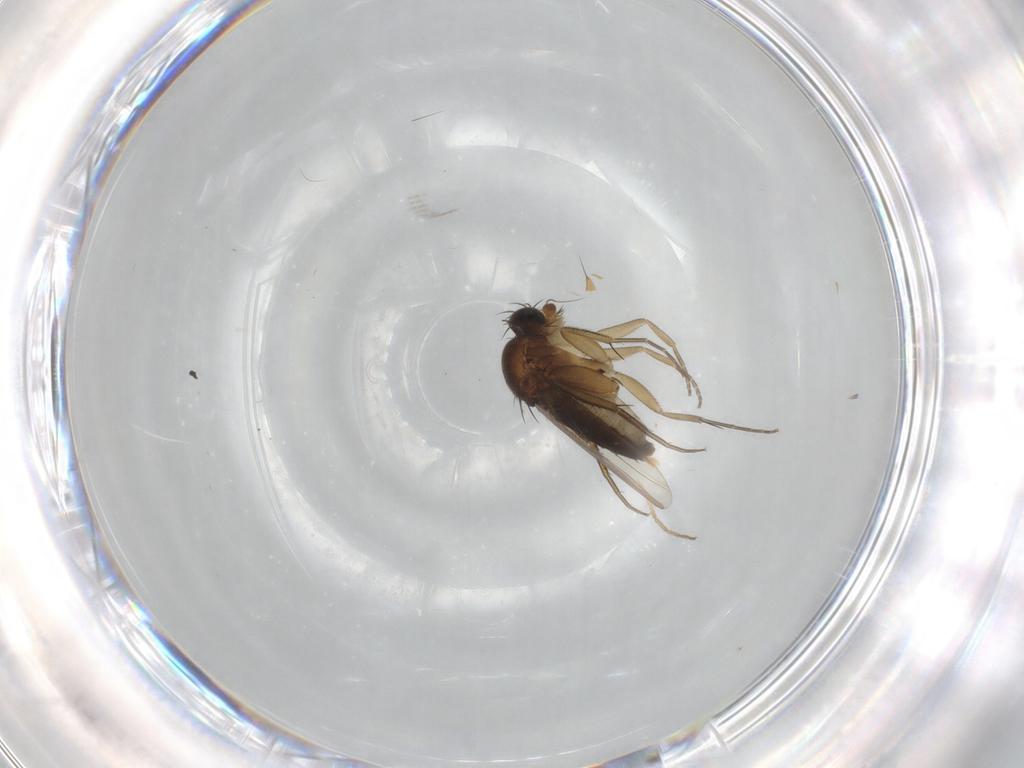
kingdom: Animalia
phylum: Arthropoda
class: Insecta
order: Diptera
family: Phoridae
